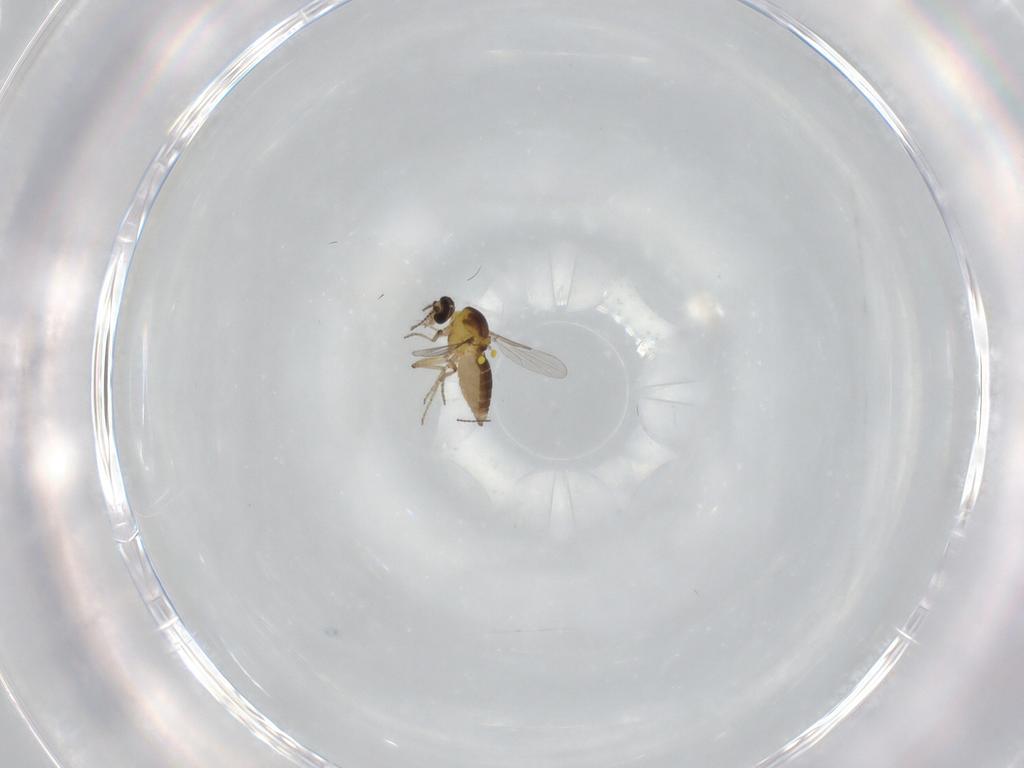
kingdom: Animalia
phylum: Arthropoda
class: Insecta
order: Diptera
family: Ceratopogonidae
